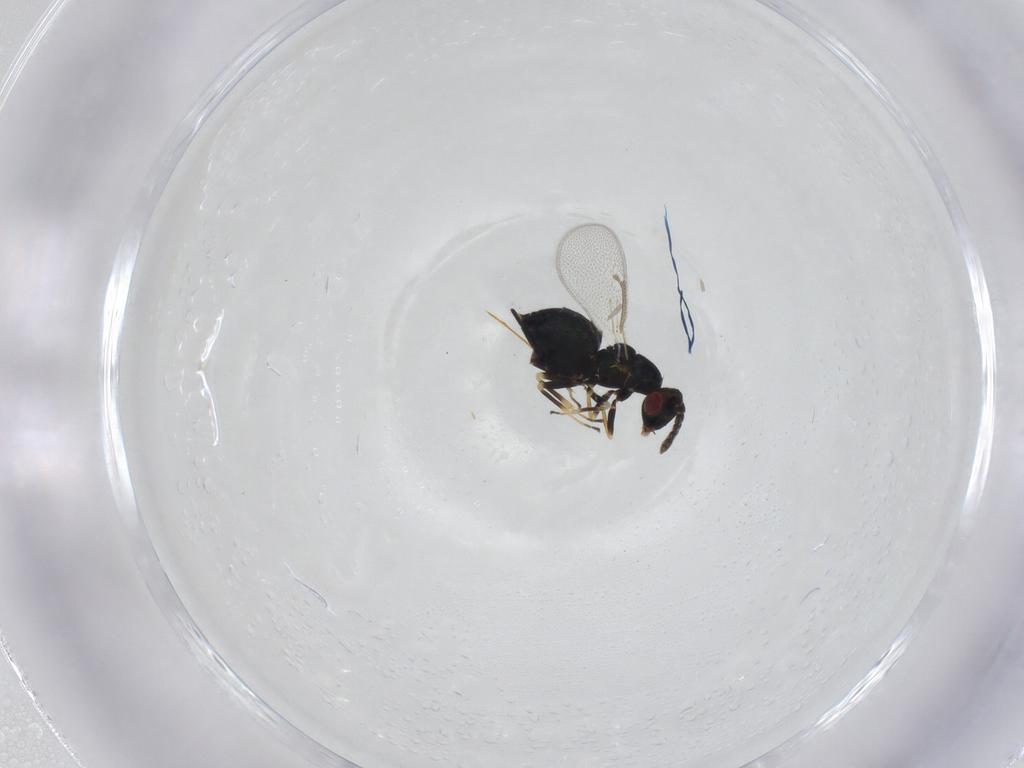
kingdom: Animalia
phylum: Arthropoda
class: Insecta
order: Hymenoptera
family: Eulophidae
